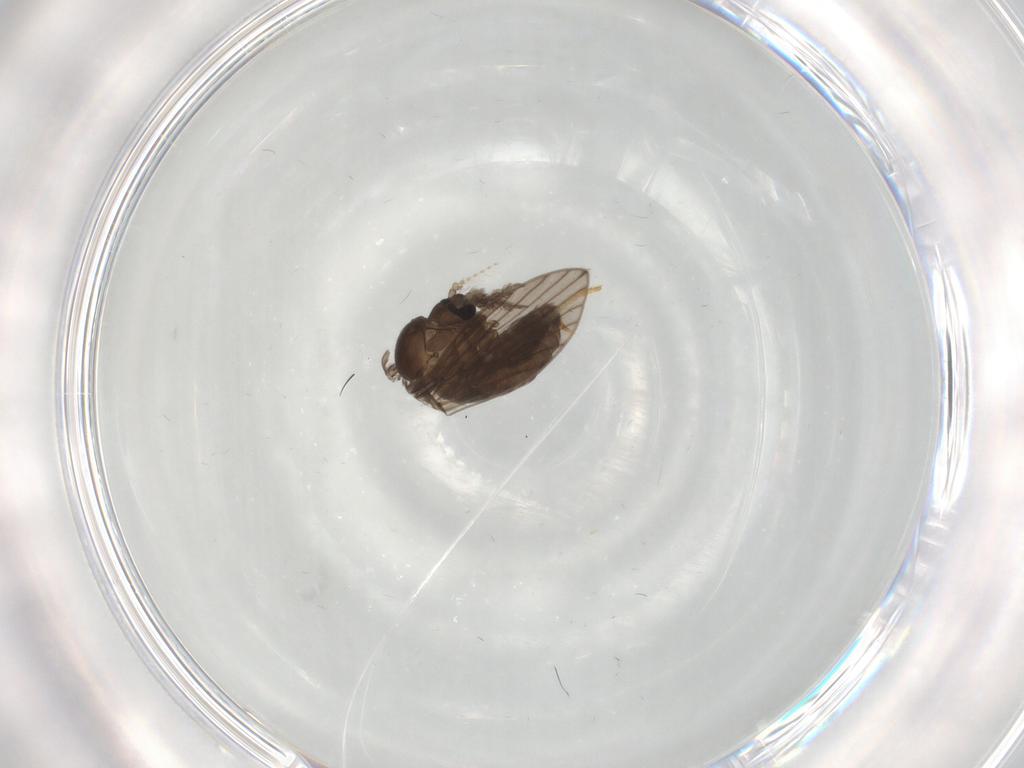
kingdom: Animalia
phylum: Arthropoda
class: Insecta
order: Diptera
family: Psychodidae
